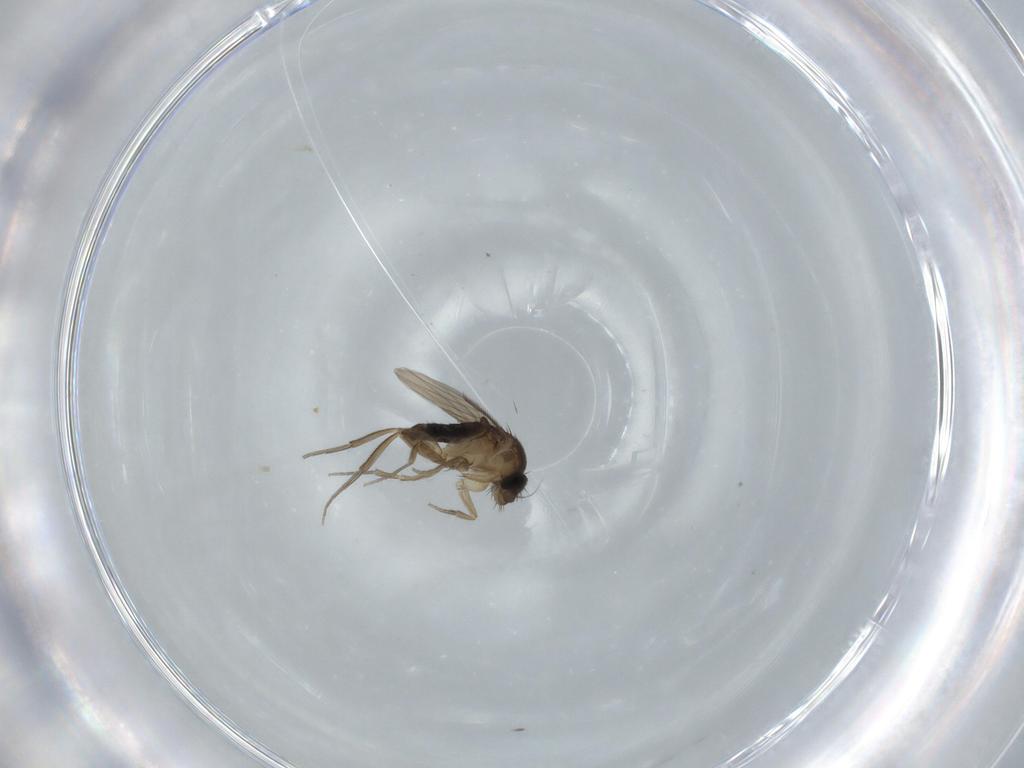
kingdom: Animalia
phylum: Arthropoda
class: Insecta
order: Diptera
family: Phoridae
